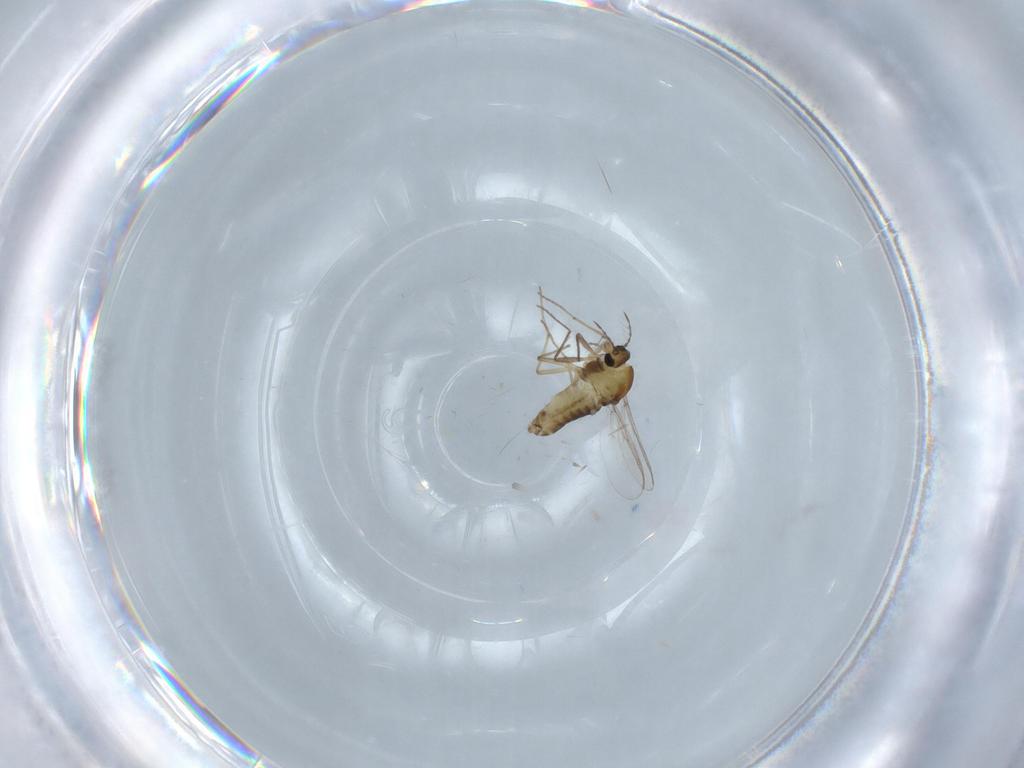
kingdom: Animalia
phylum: Arthropoda
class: Insecta
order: Diptera
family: Chironomidae
